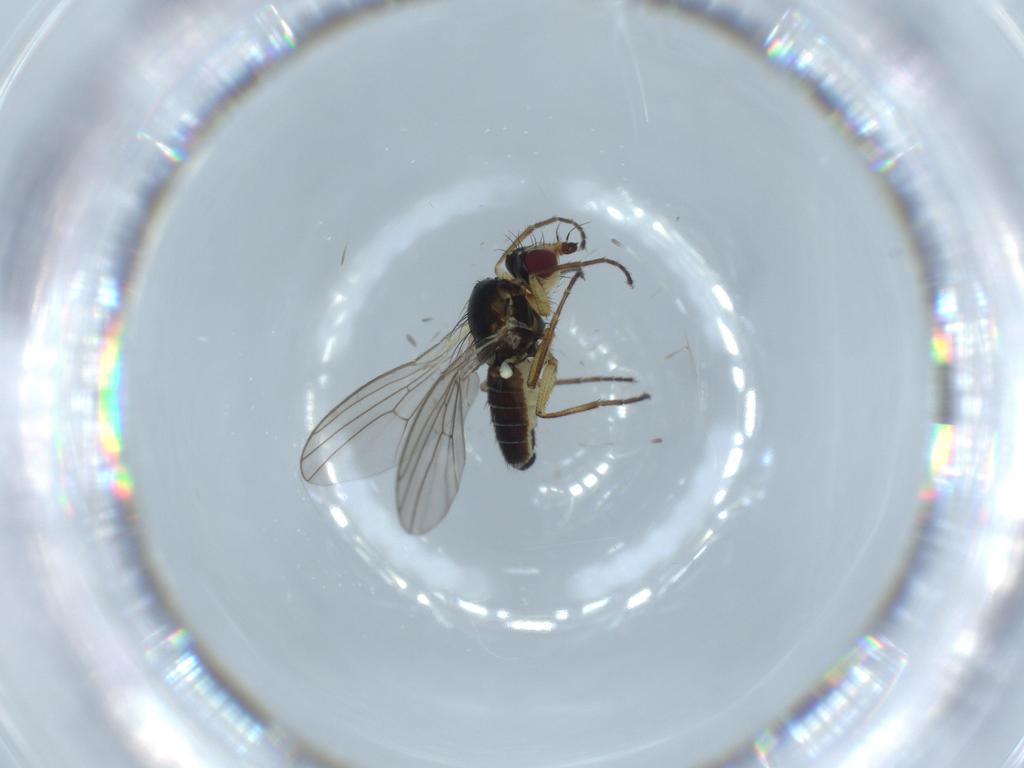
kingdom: Animalia
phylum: Arthropoda
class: Insecta
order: Diptera
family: Agromyzidae
